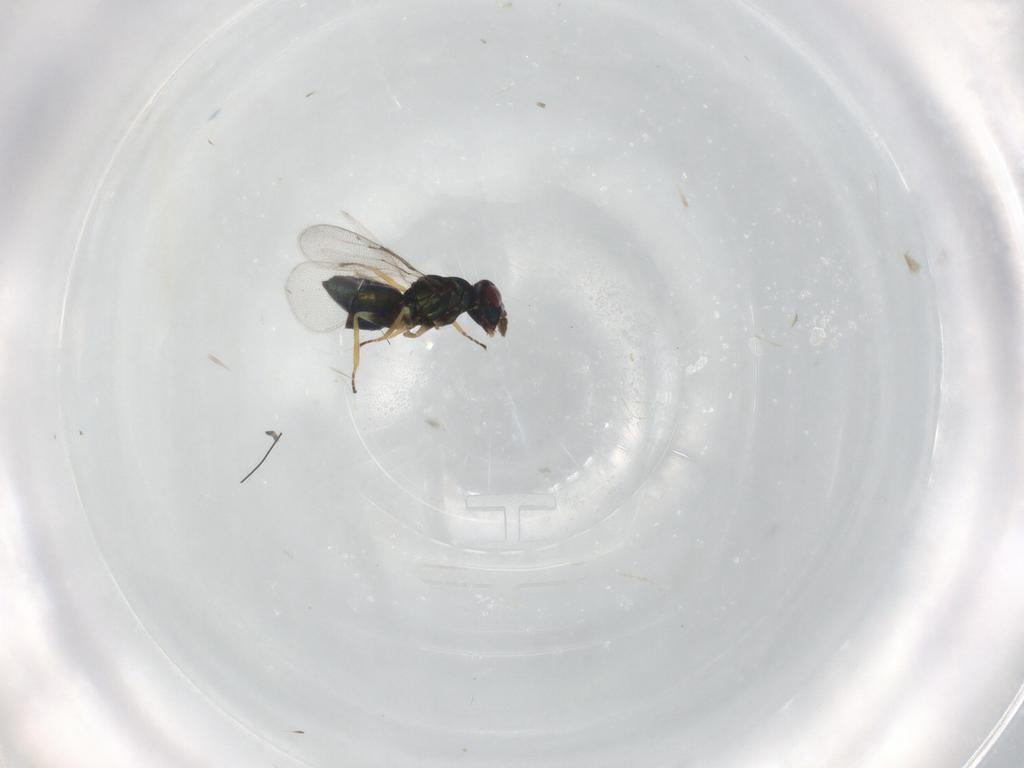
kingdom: Animalia
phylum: Arthropoda
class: Insecta
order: Hymenoptera
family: Eulophidae
